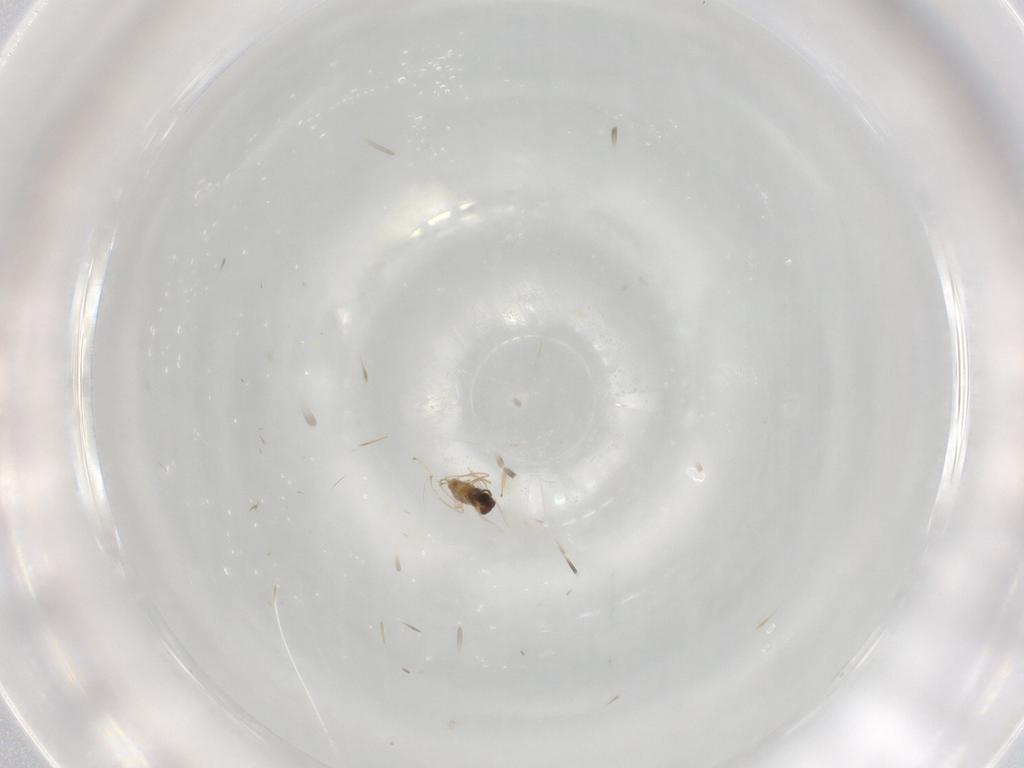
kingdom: Animalia
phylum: Arthropoda
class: Insecta
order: Diptera
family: Cecidomyiidae
